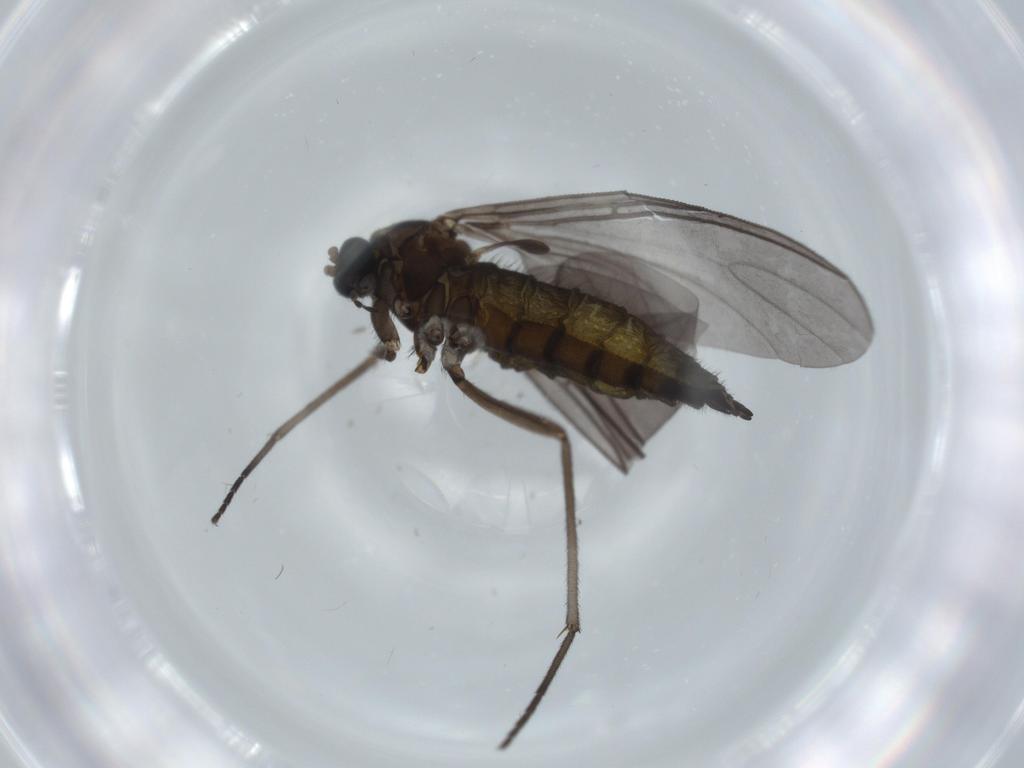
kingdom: Animalia
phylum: Arthropoda
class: Insecta
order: Diptera
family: Sciaridae
